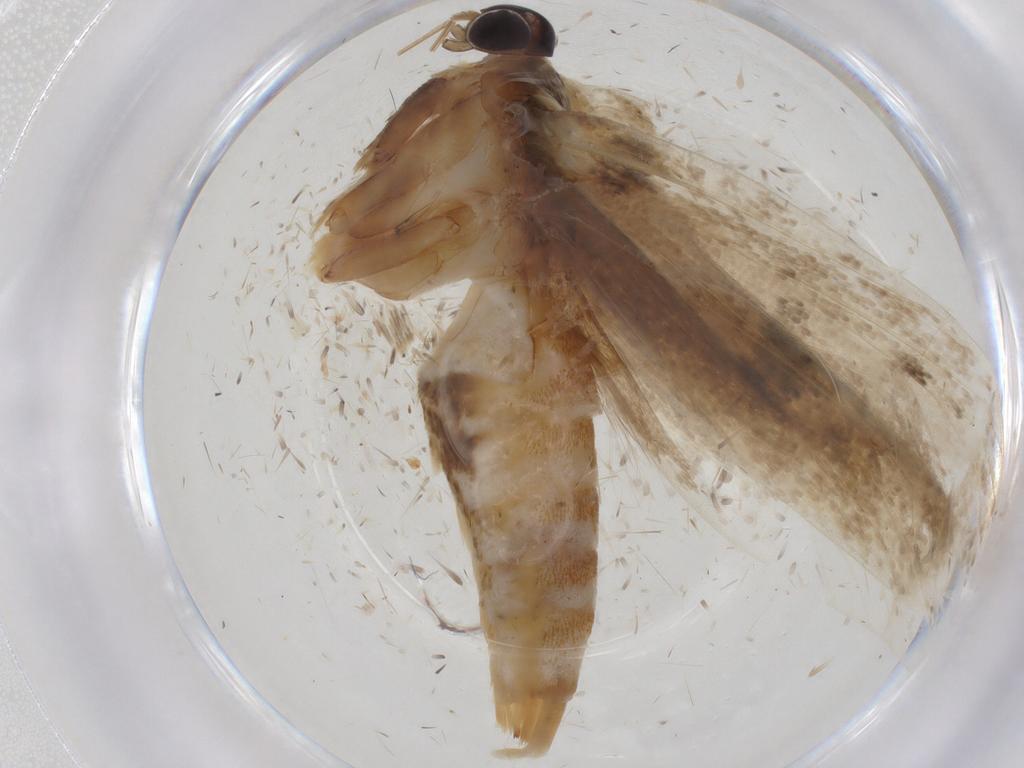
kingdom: Animalia
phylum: Arthropoda
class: Insecta
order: Lepidoptera
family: Oecophoridae
